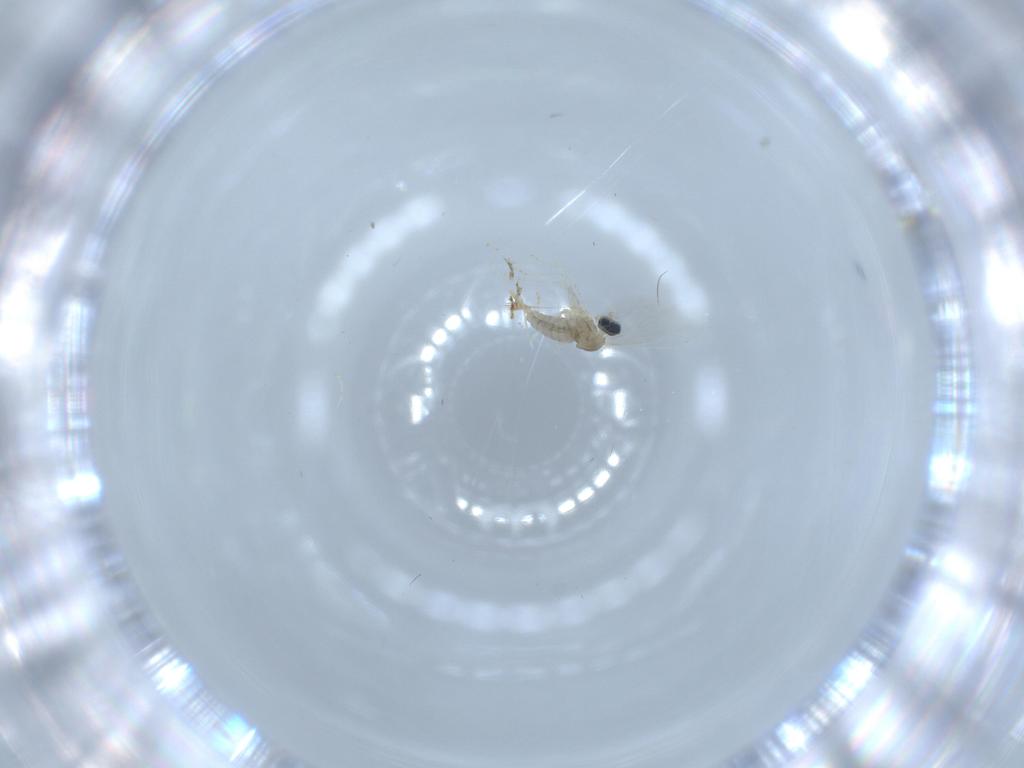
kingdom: Animalia
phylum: Arthropoda
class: Insecta
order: Diptera
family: Cecidomyiidae
